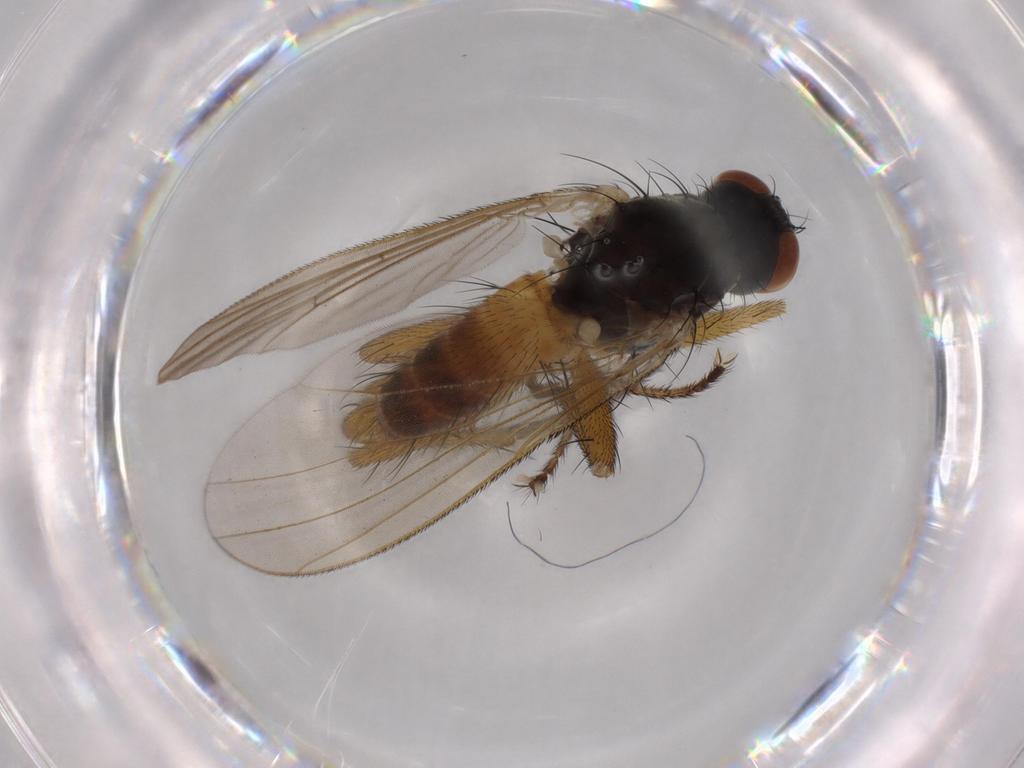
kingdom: Animalia
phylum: Arthropoda
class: Insecta
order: Diptera
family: Muscidae
